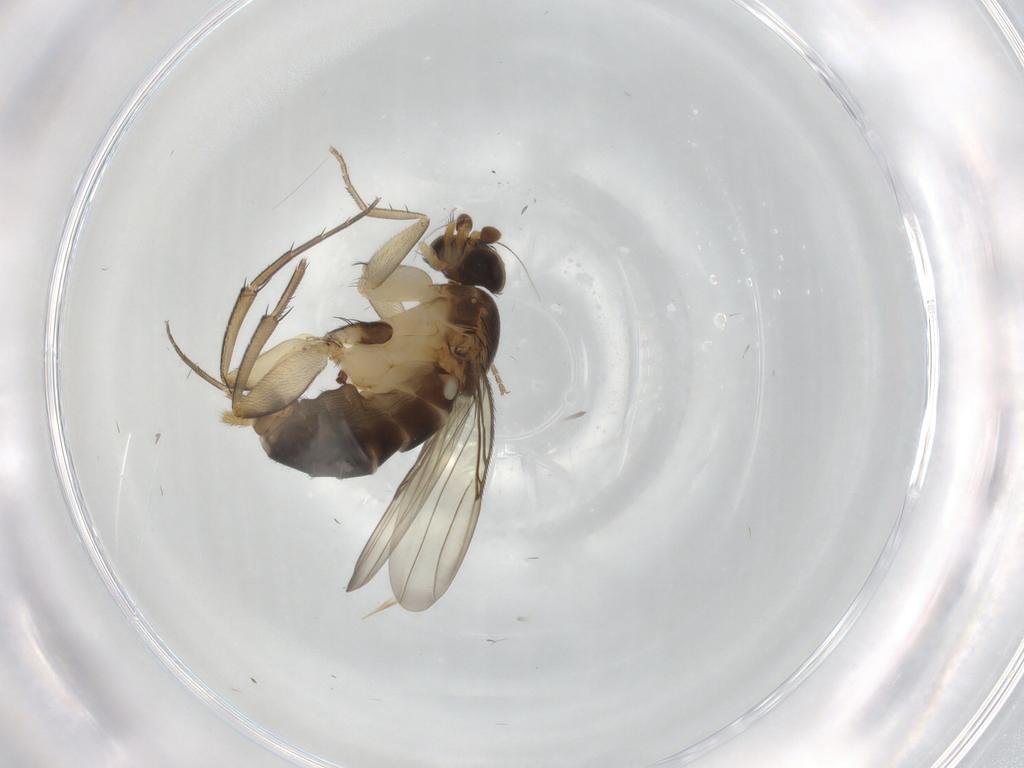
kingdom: Animalia
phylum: Arthropoda
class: Insecta
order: Diptera
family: Phoridae
